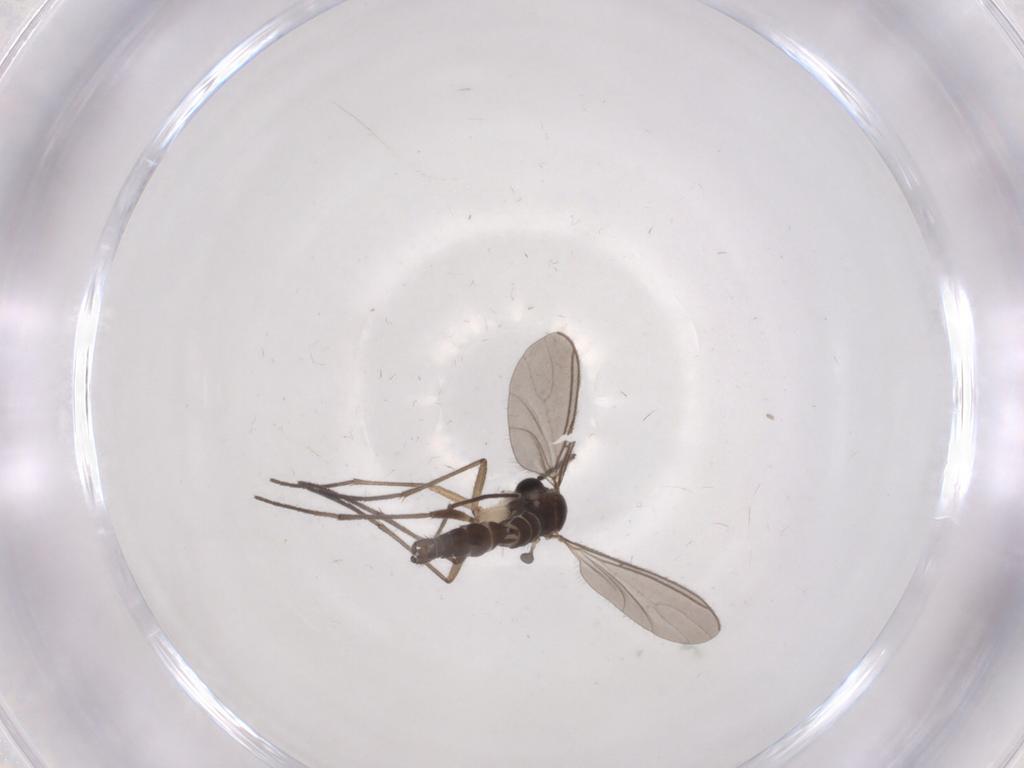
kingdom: Animalia
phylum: Arthropoda
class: Insecta
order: Diptera
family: Sciaridae
